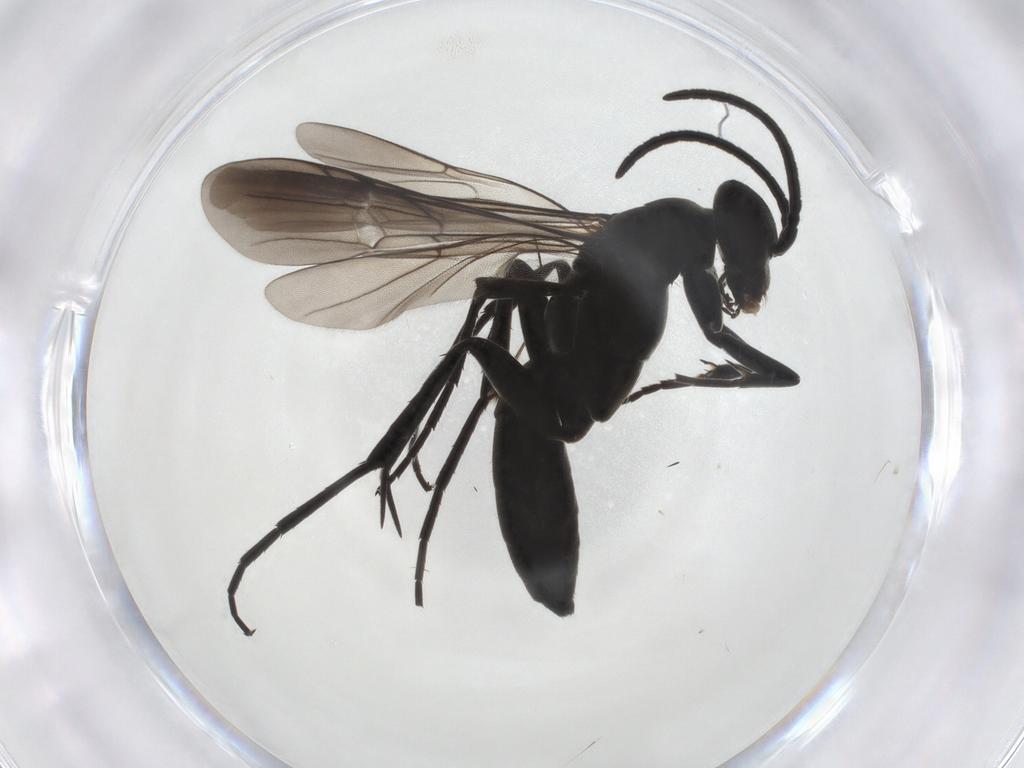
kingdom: Animalia
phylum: Arthropoda
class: Insecta
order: Hymenoptera
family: Pompilidae
